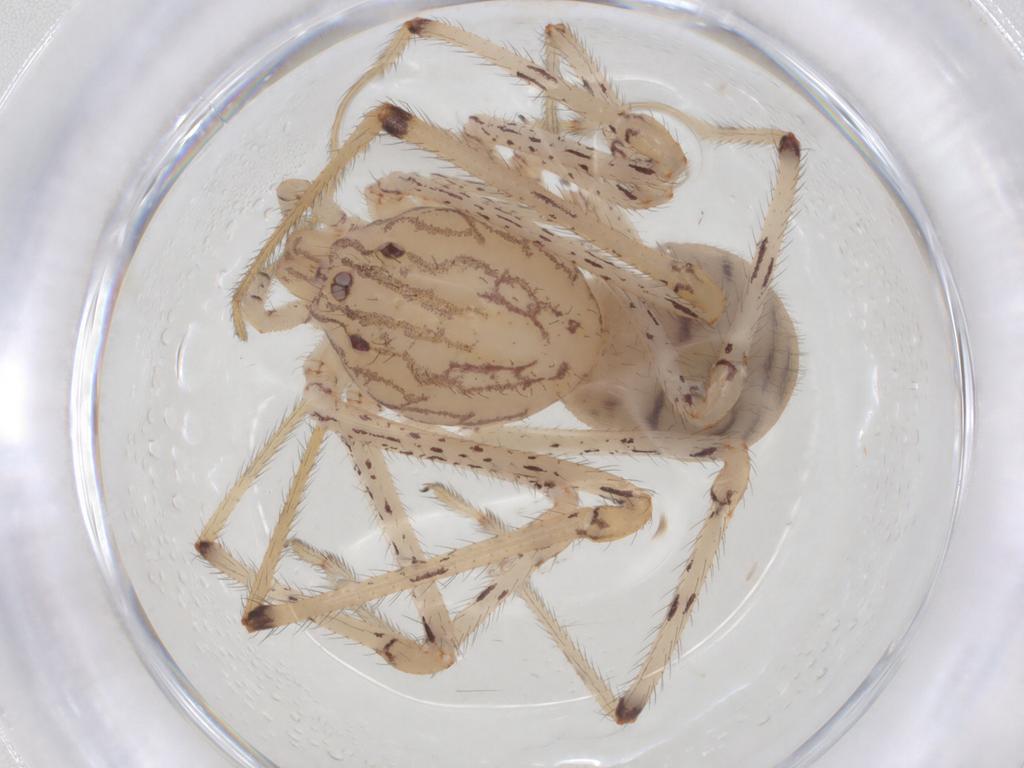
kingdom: Animalia
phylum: Arthropoda
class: Arachnida
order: Araneae
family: Scytodidae
